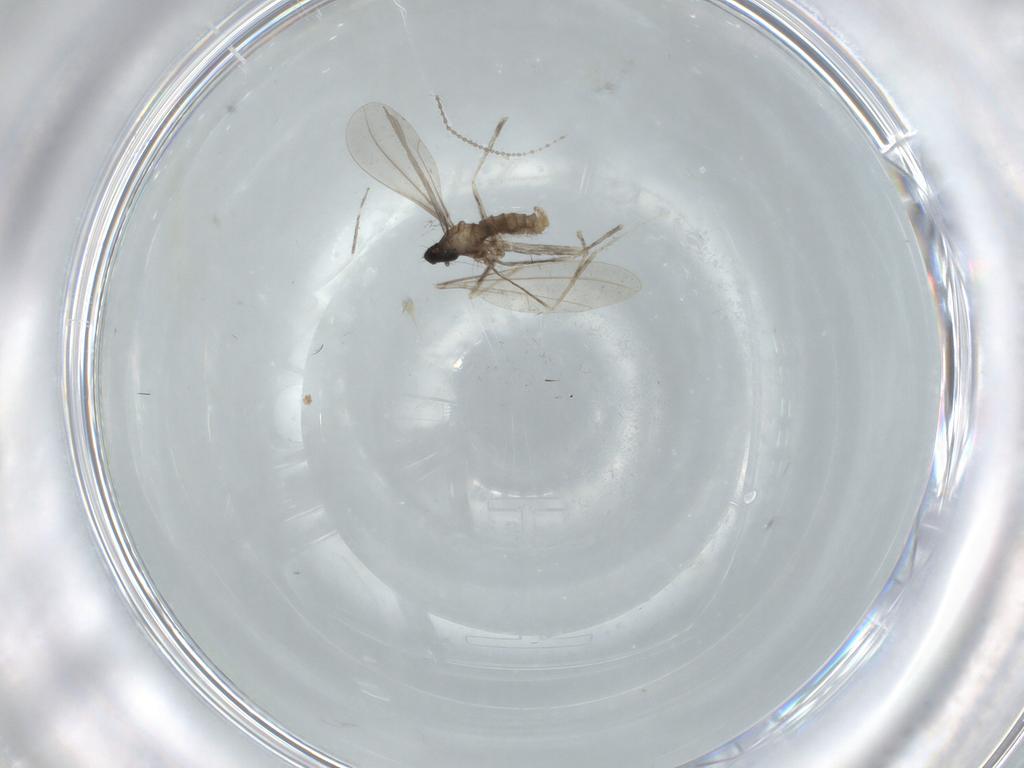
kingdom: Animalia
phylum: Arthropoda
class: Insecta
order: Diptera
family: Cecidomyiidae
